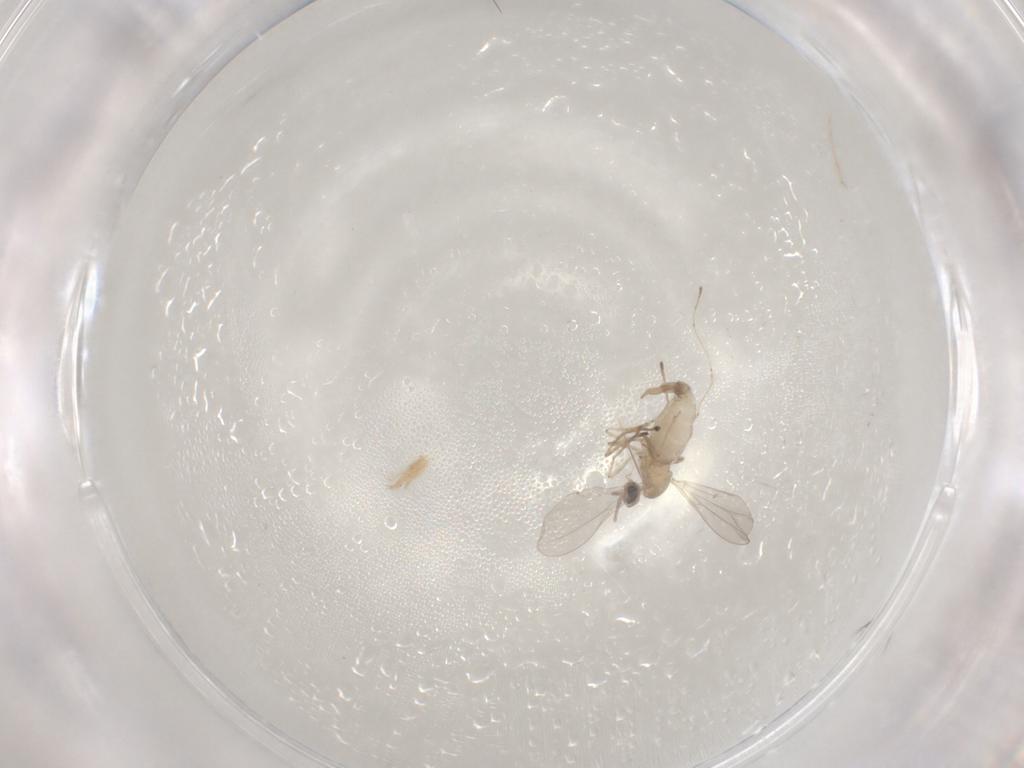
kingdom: Animalia
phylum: Arthropoda
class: Insecta
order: Diptera
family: Cecidomyiidae
